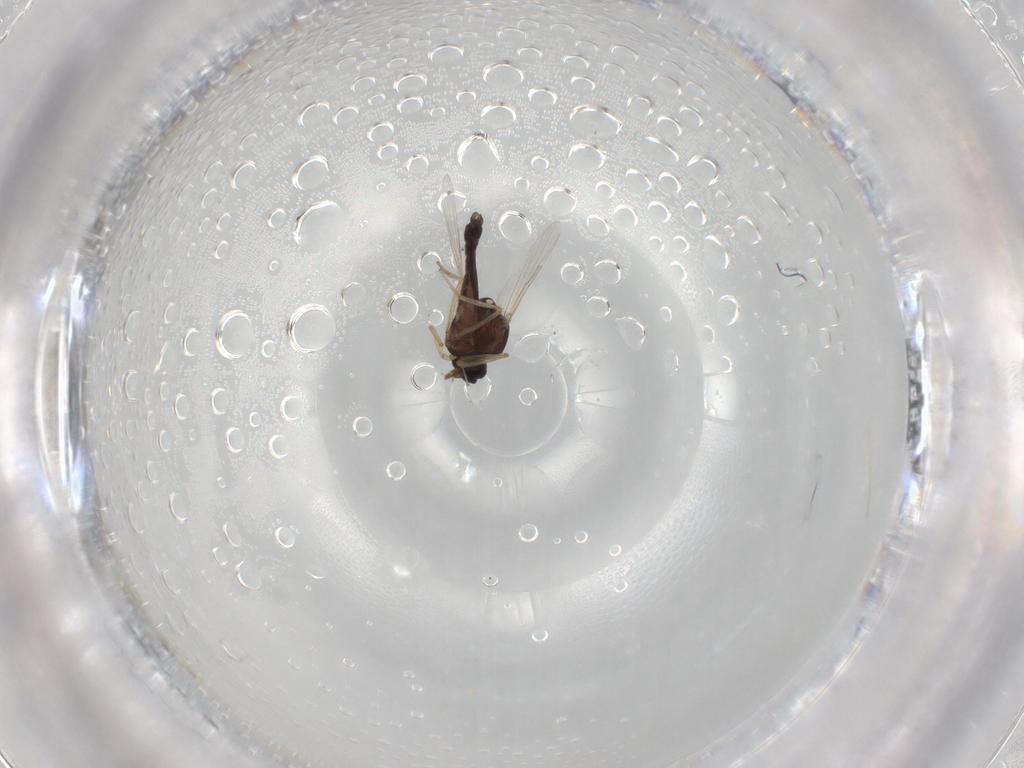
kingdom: Animalia
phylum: Arthropoda
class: Insecta
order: Diptera
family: Ceratopogonidae
